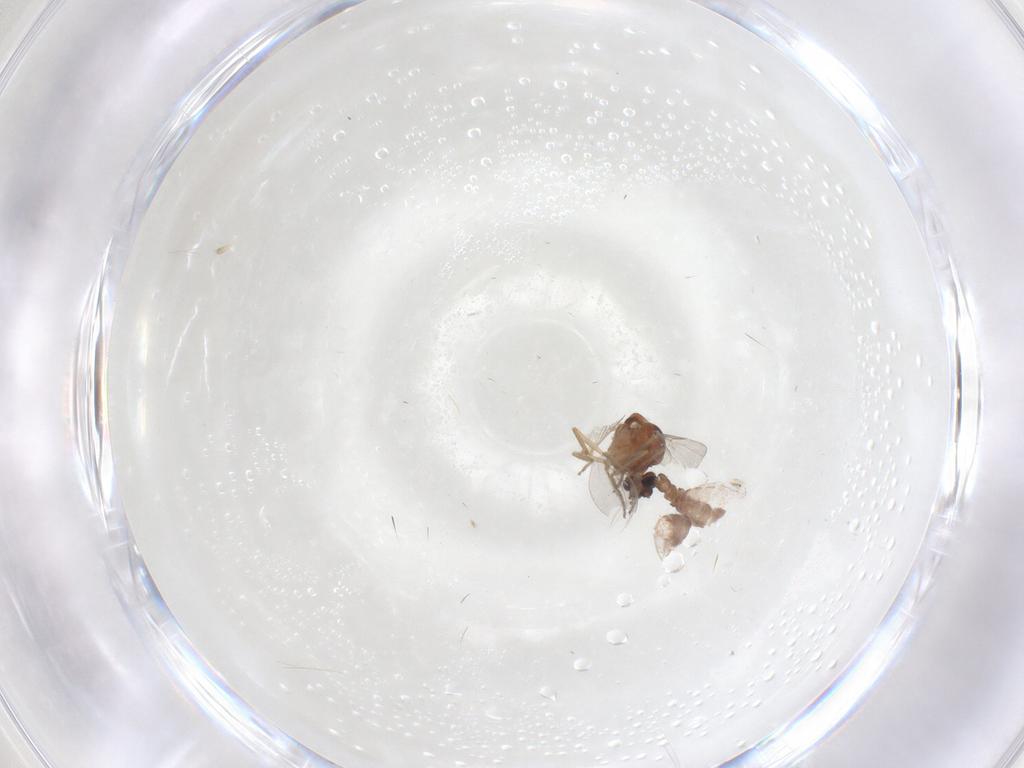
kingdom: Animalia
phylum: Arthropoda
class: Insecta
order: Diptera
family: Ceratopogonidae
